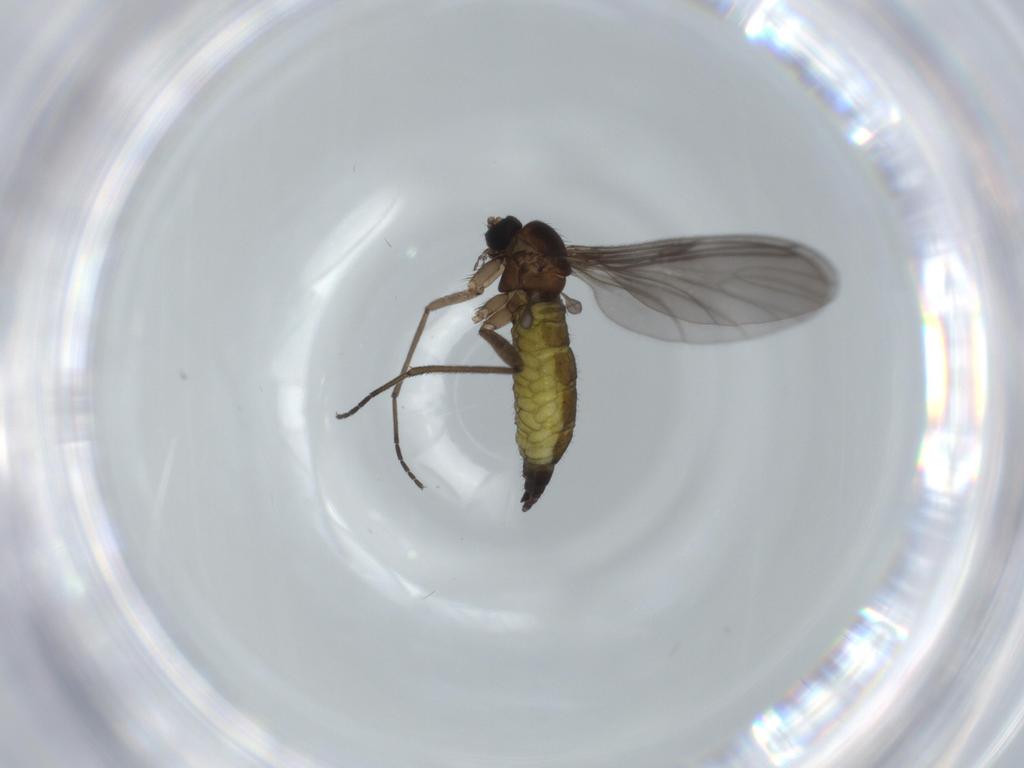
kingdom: Animalia
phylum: Arthropoda
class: Insecta
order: Diptera
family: Sciaridae
